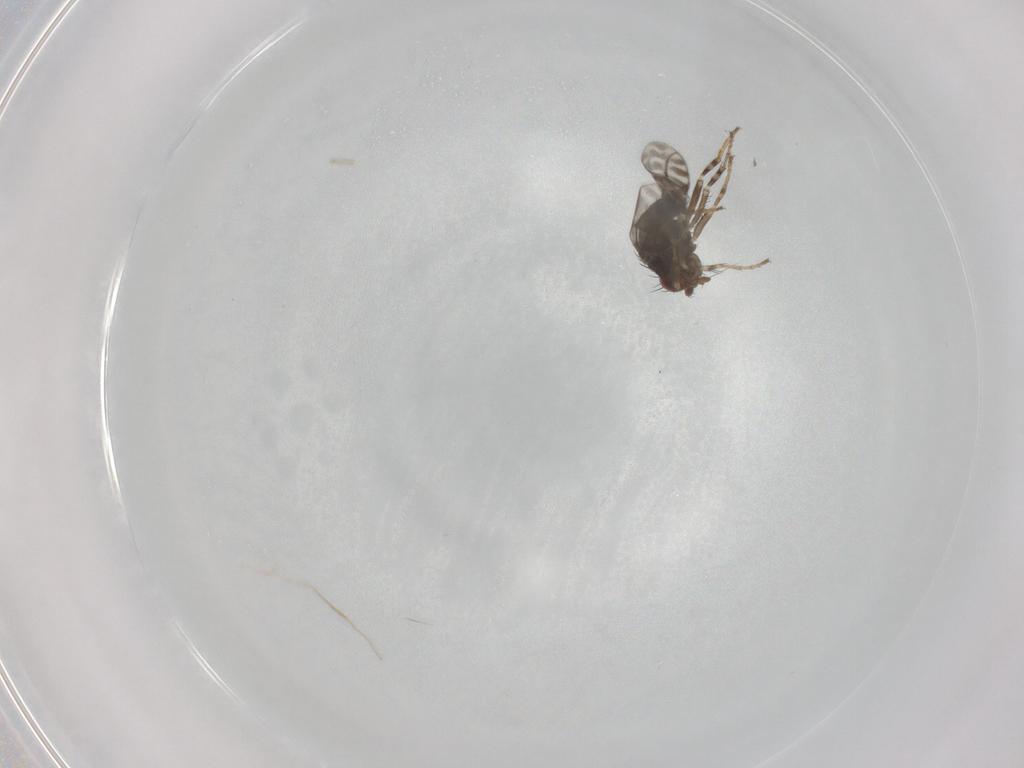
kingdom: Animalia
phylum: Arthropoda
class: Insecta
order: Diptera
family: Sphaeroceridae
